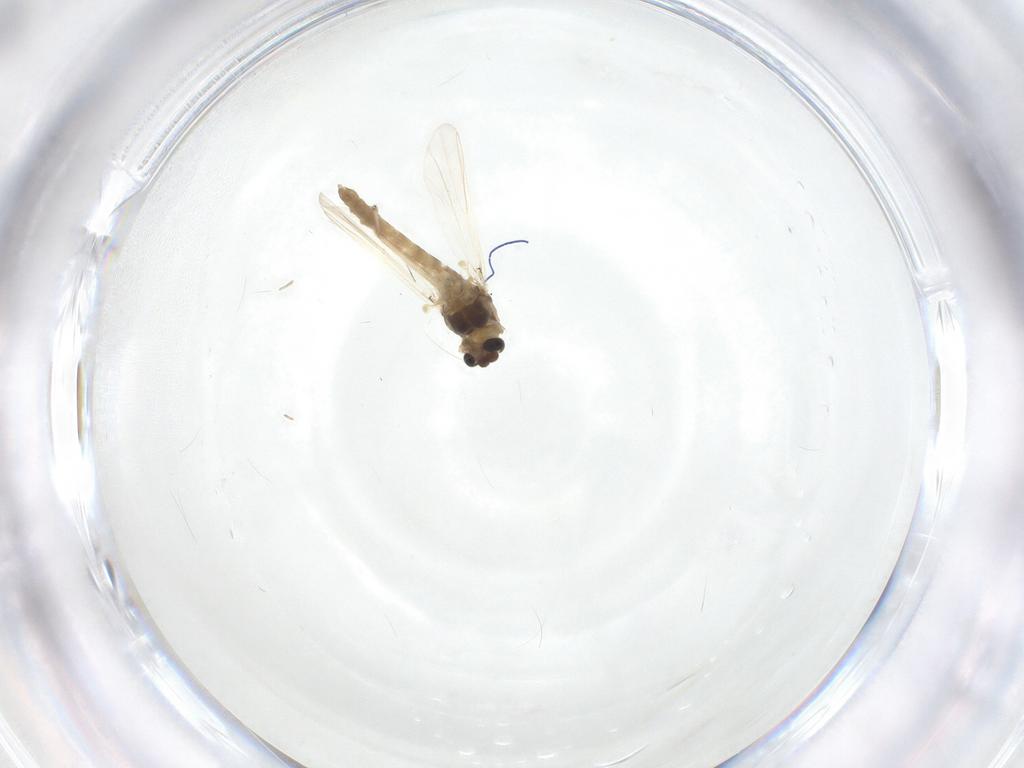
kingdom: Animalia
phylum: Arthropoda
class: Insecta
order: Diptera
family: Chironomidae
